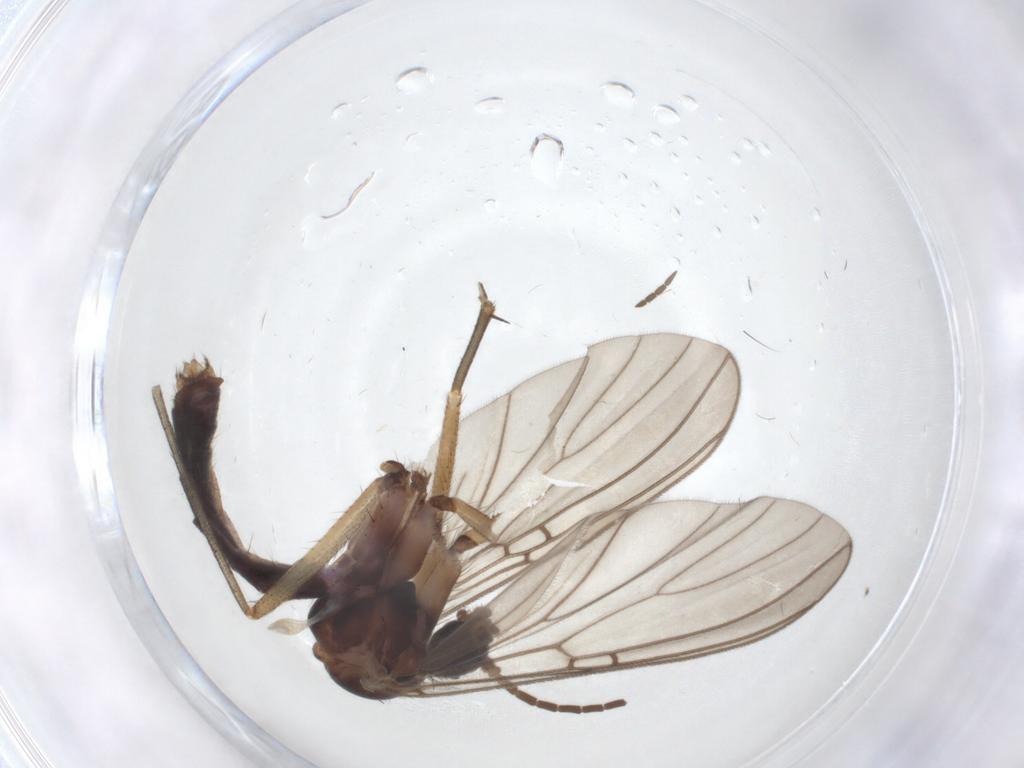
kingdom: Animalia
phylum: Arthropoda
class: Insecta
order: Diptera
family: Mycetophilidae
